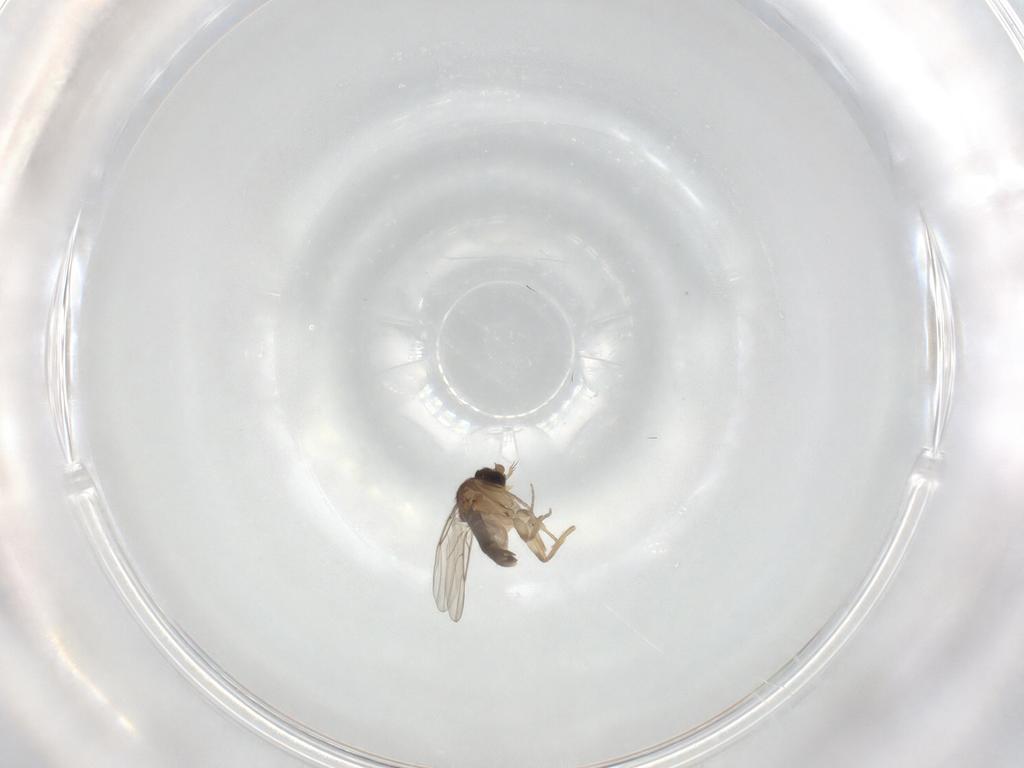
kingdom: Animalia
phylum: Arthropoda
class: Insecta
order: Diptera
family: Phoridae
